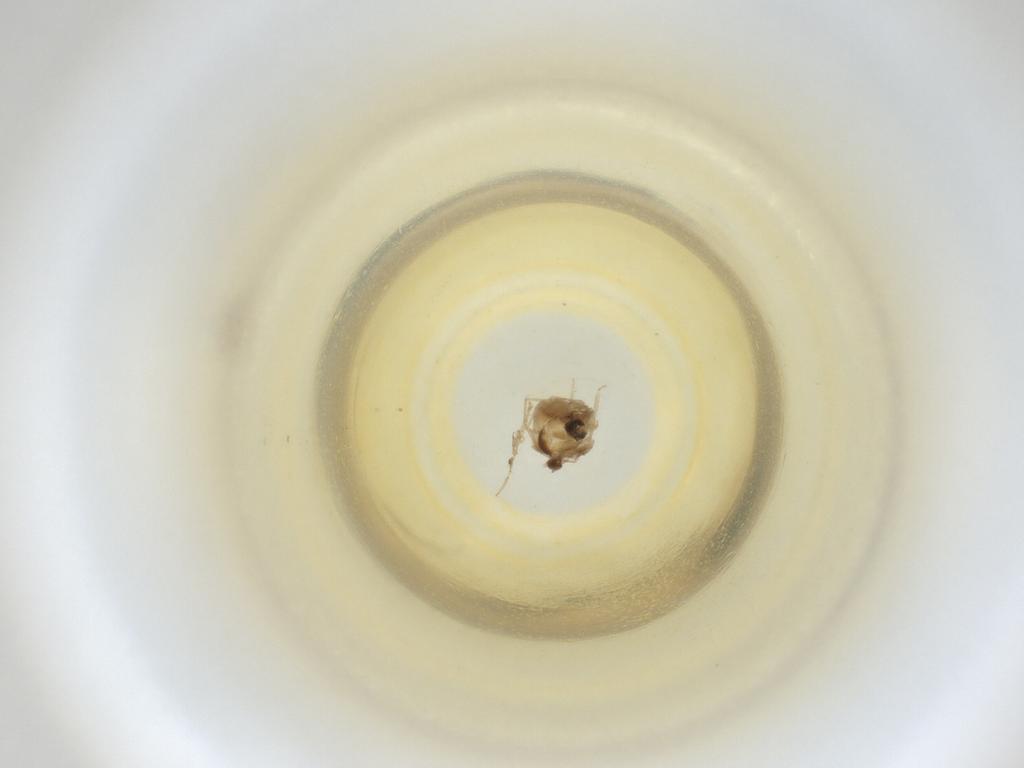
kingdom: Animalia
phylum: Arthropoda
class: Insecta
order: Diptera
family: Cecidomyiidae
